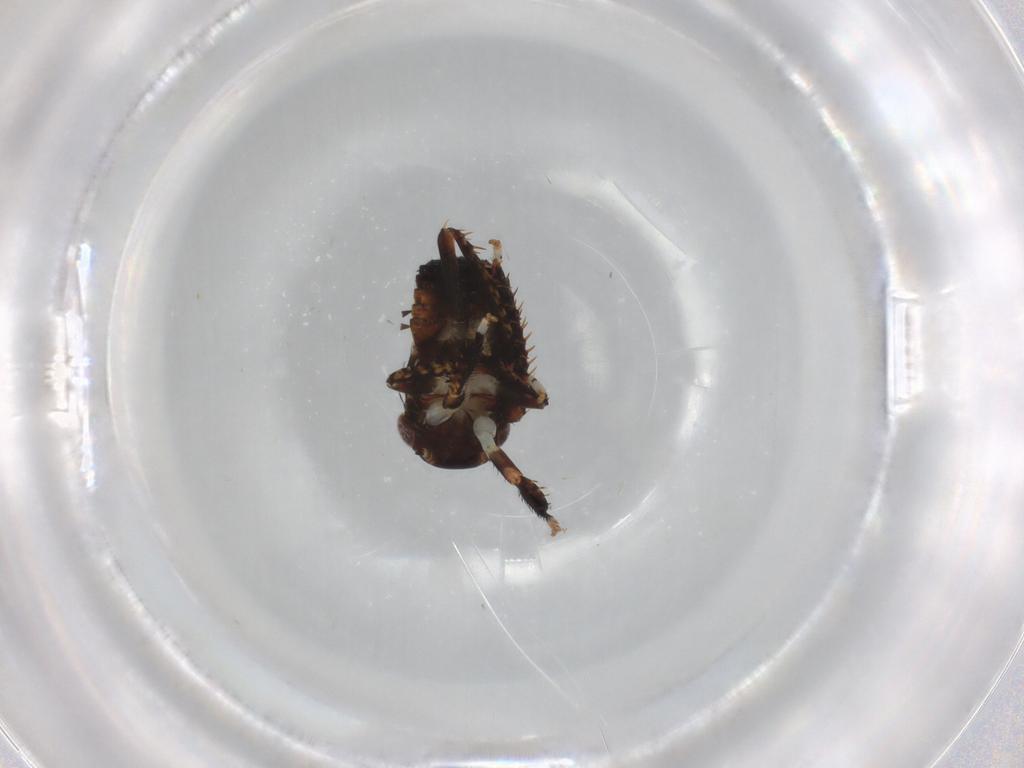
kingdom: Animalia
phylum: Arthropoda
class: Insecta
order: Hemiptera
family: Cicadellidae
